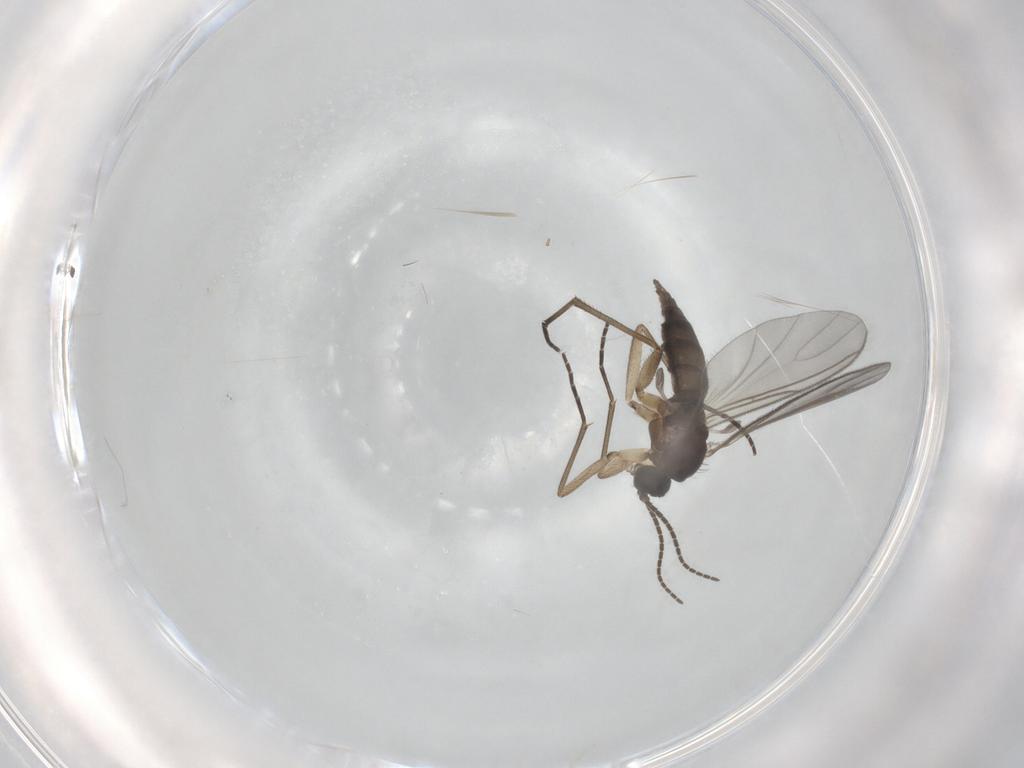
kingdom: Animalia
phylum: Arthropoda
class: Insecta
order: Diptera
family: Sciaridae
